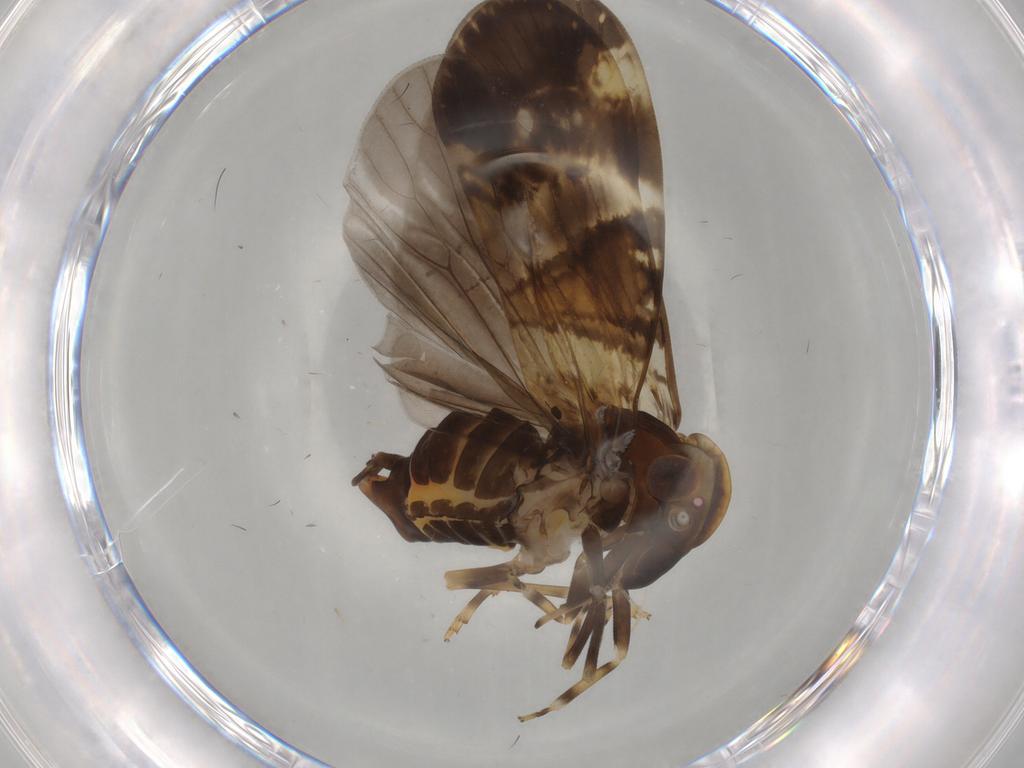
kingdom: Animalia
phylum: Arthropoda
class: Insecta
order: Hemiptera
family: Cixiidae
